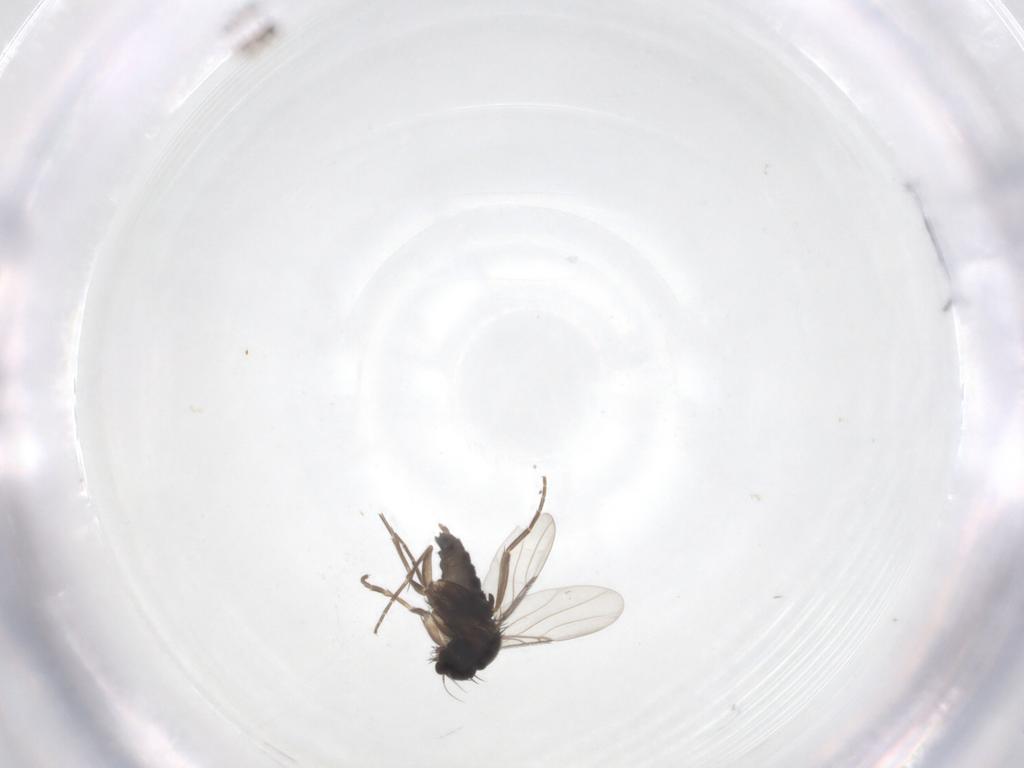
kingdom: Animalia
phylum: Arthropoda
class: Insecta
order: Diptera
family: Phoridae
